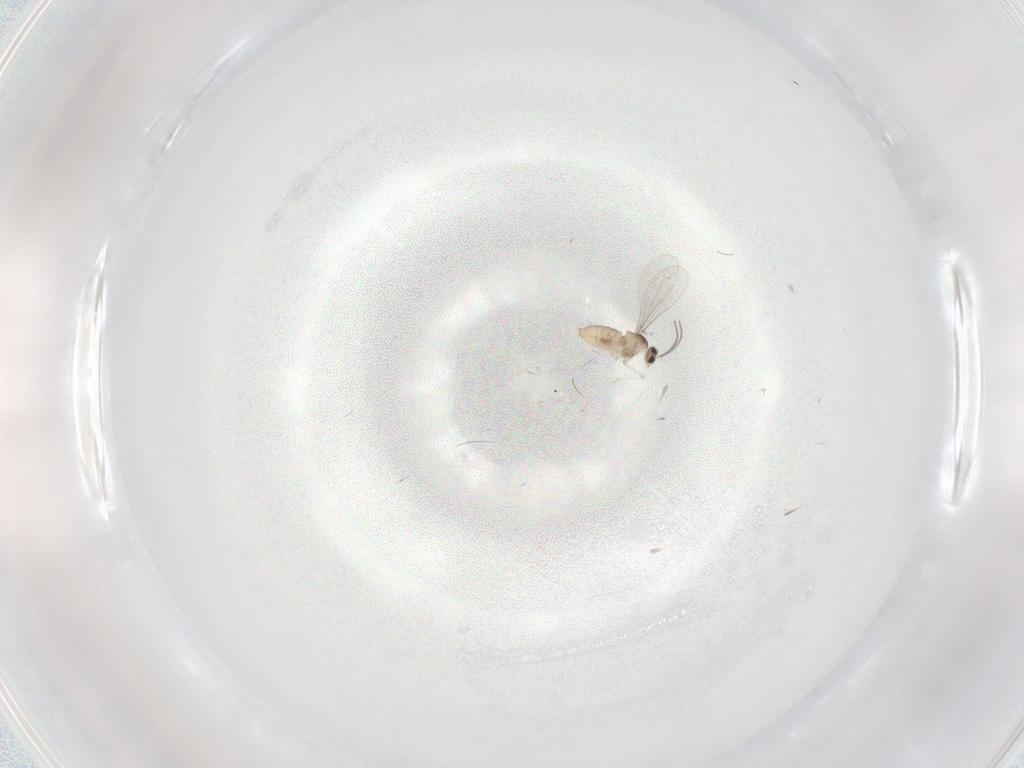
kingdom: Animalia
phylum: Arthropoda
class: Insecta
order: Diptera
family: Cecidomyiidae
